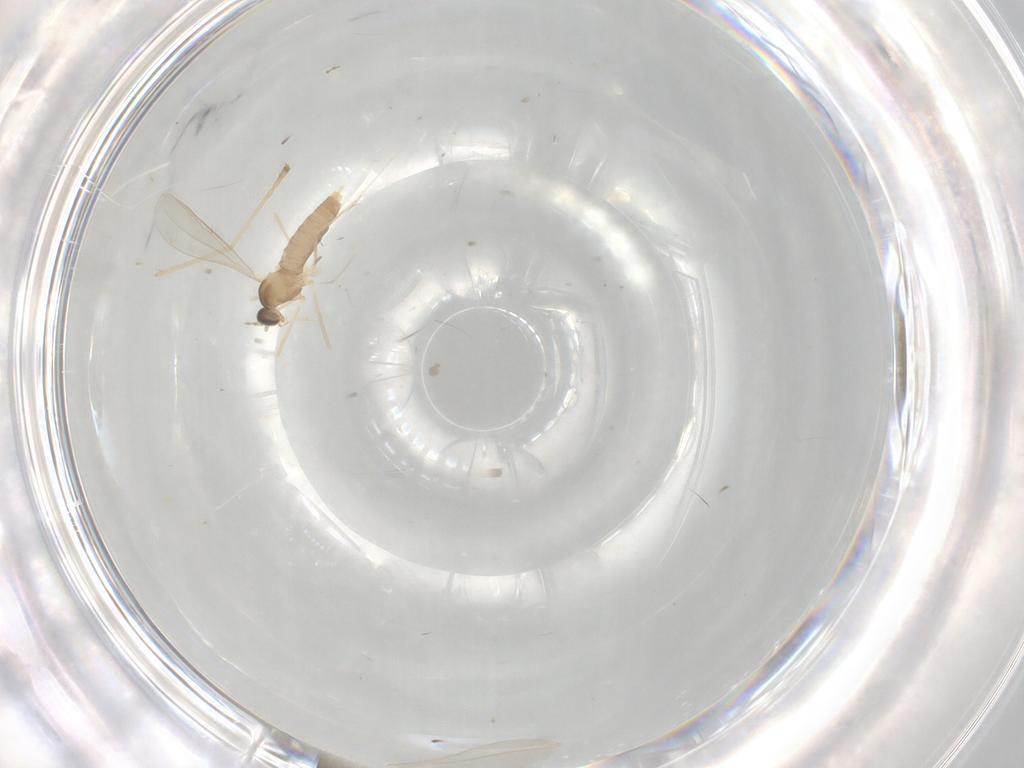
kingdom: Animalia
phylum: Arthropoda
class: Insecta
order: Diptera
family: Cecidomyiidae
